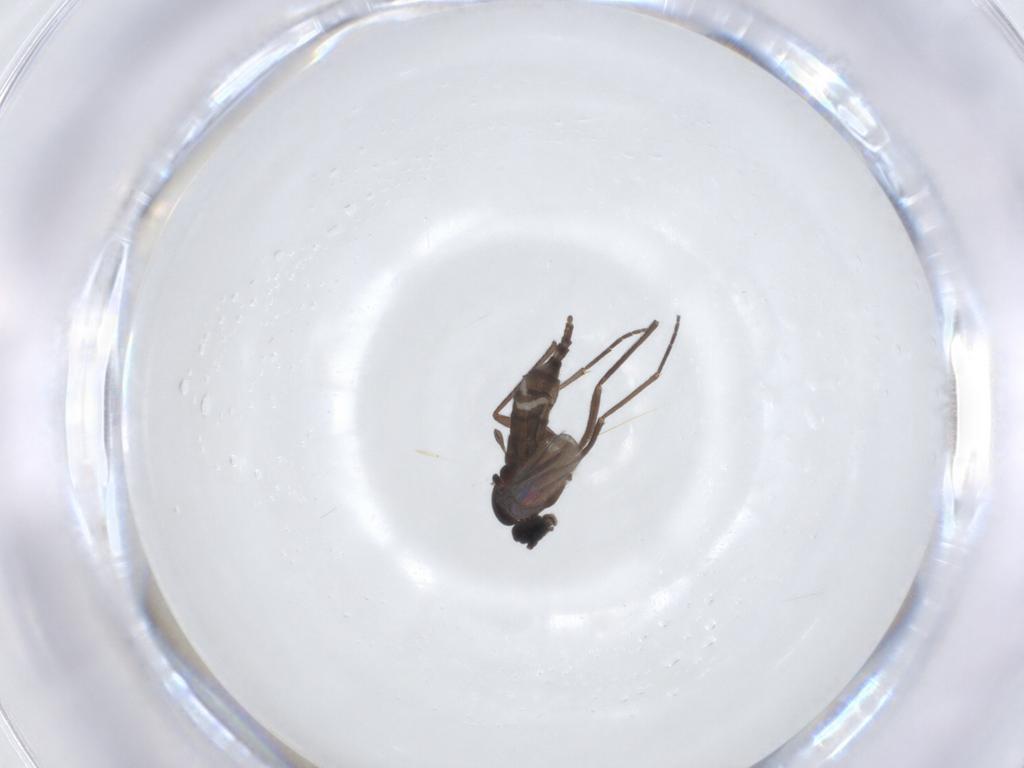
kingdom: Animalia
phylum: Arthropoda
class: Insecta
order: Diptera
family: Sciaridae
